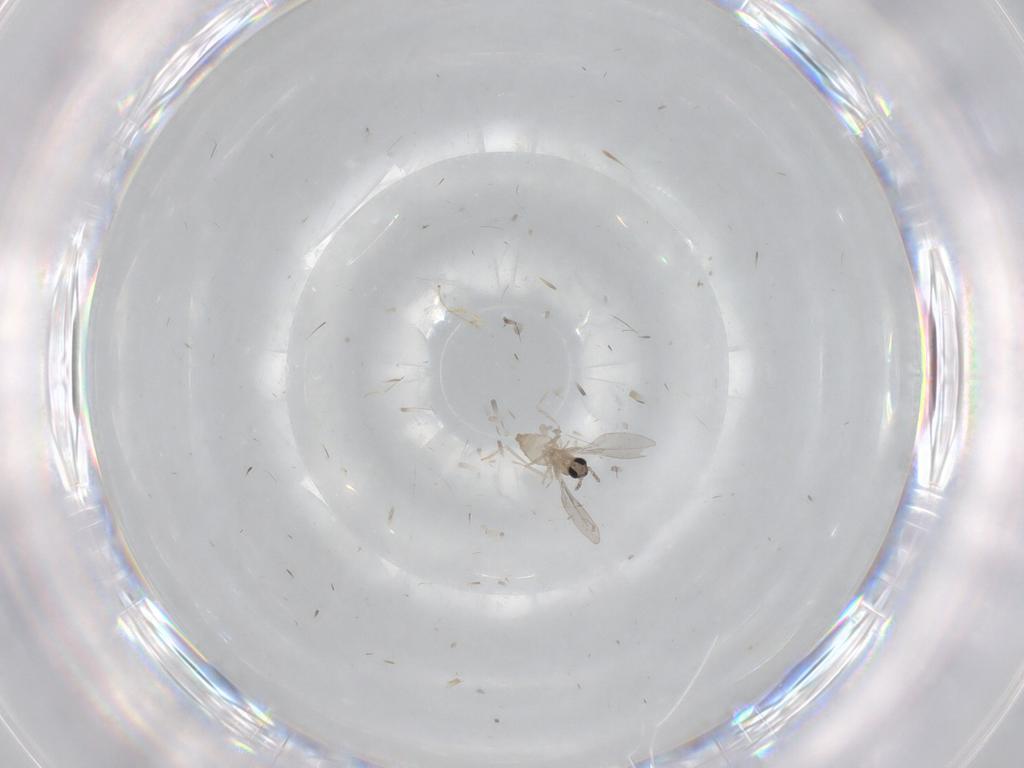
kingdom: Animalia
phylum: Arthropoda
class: Insecta
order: Diptera
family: Cecidomyiidae
